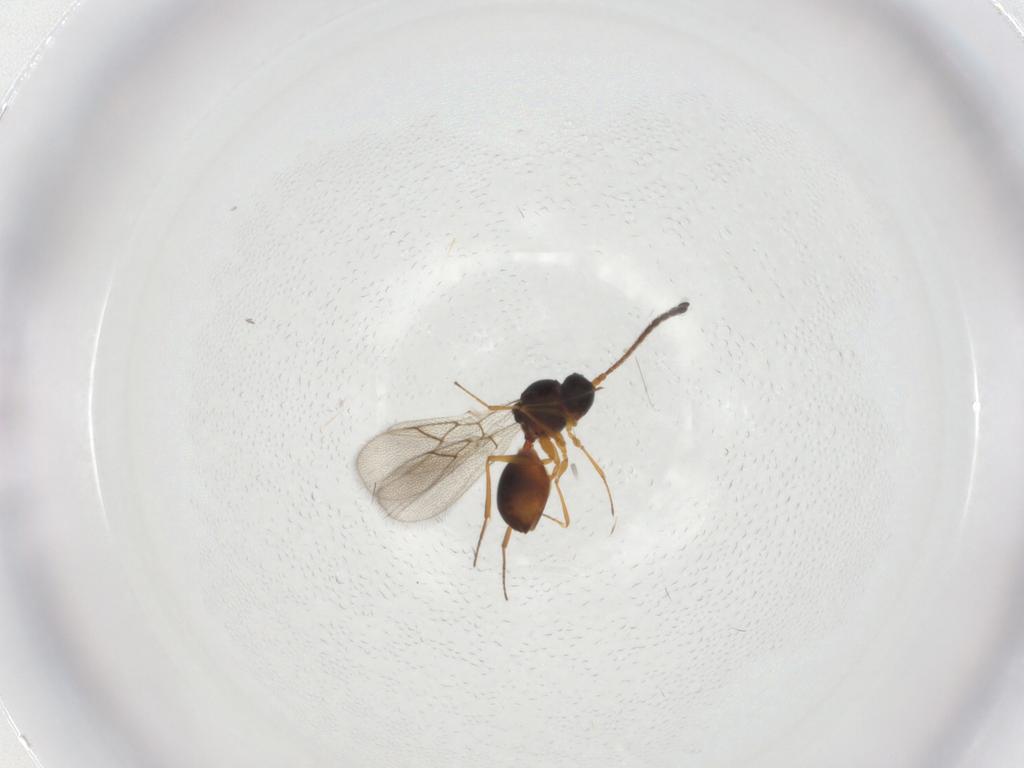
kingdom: Animalia
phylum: Arthropoda
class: Insecta
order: Hymenoptera
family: Figitidae
